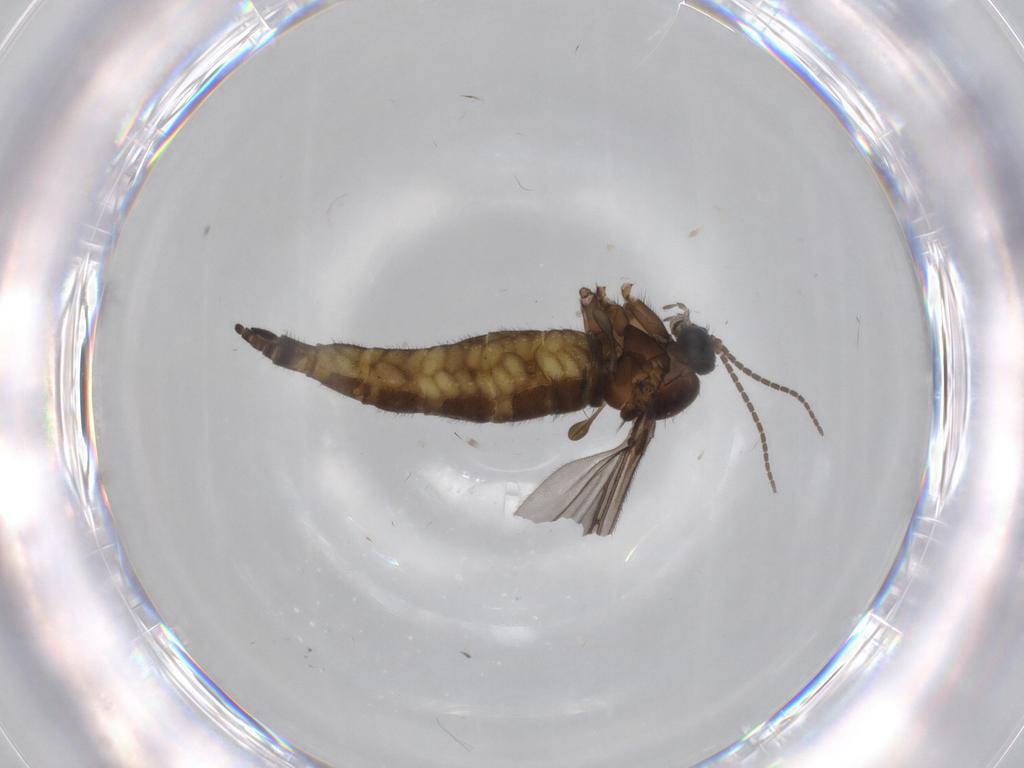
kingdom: Animalia
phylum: Arthropoda
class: Insecta
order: Diptera
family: Sciaridae
